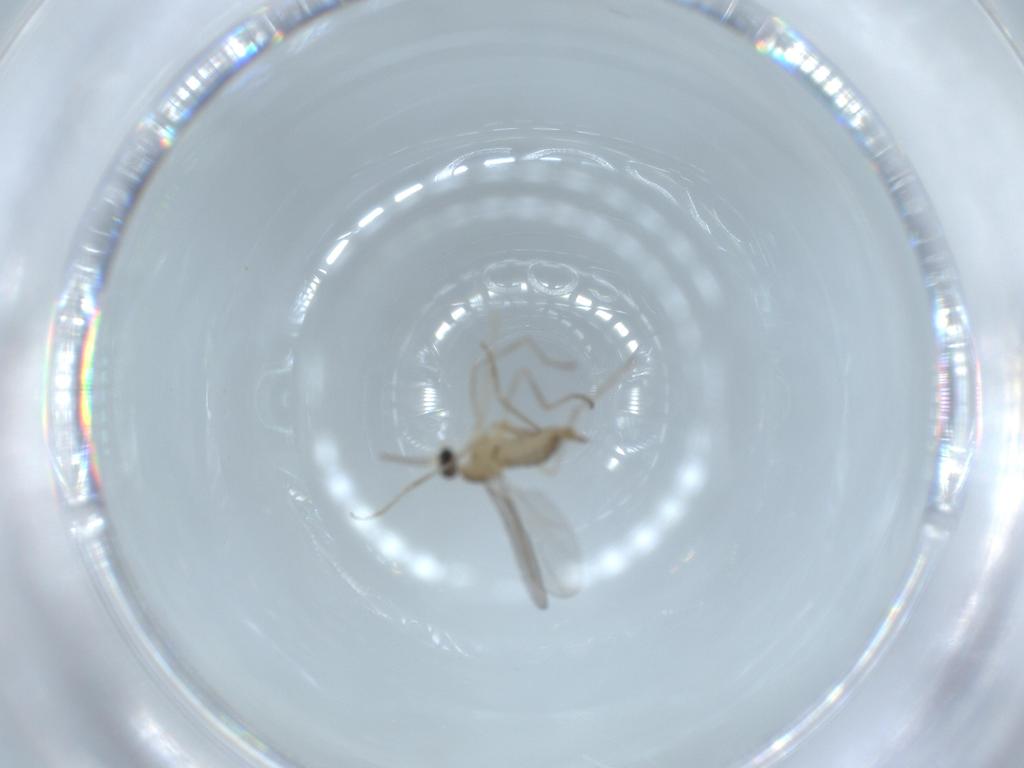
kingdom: Animalia
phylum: Arthropoda
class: Insecta
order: Diptera
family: Cecidomyiidae
